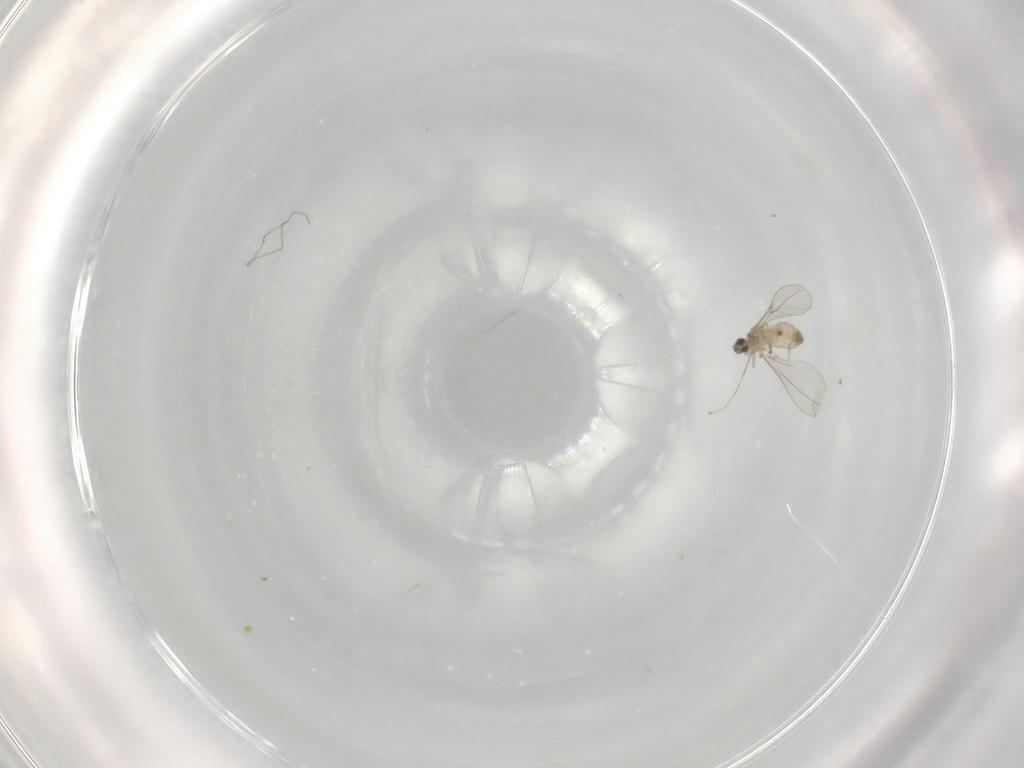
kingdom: Animalia
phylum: Arthropoda
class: Insecta
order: Diptera
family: Cecidomyiidae
